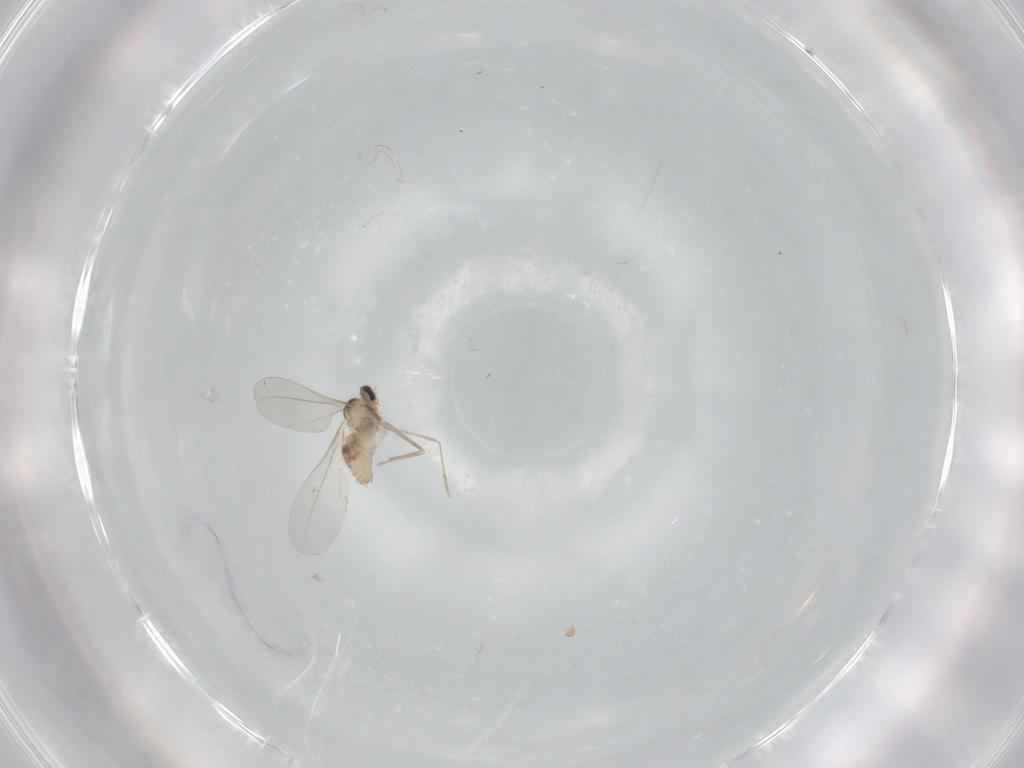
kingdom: Animalia
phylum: Arthropoda
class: Insecta
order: Diptera
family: Cecidomyiidae
